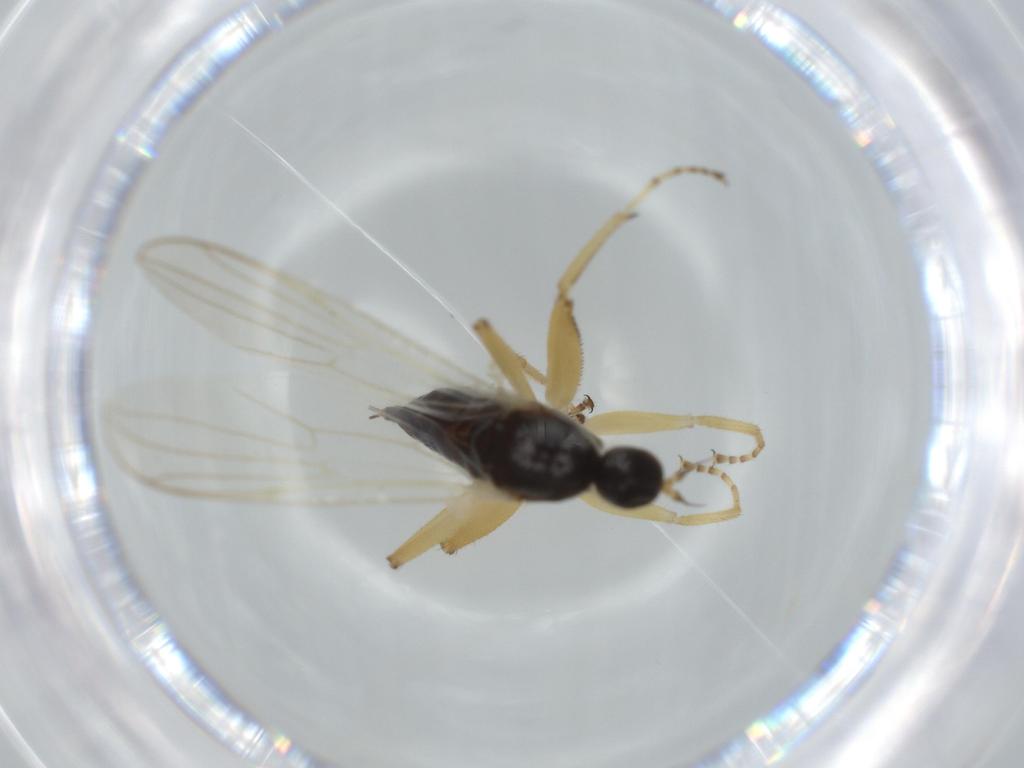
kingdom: Animalia
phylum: Arthropoda
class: Insecta
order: Diptera
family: Hybotidae
